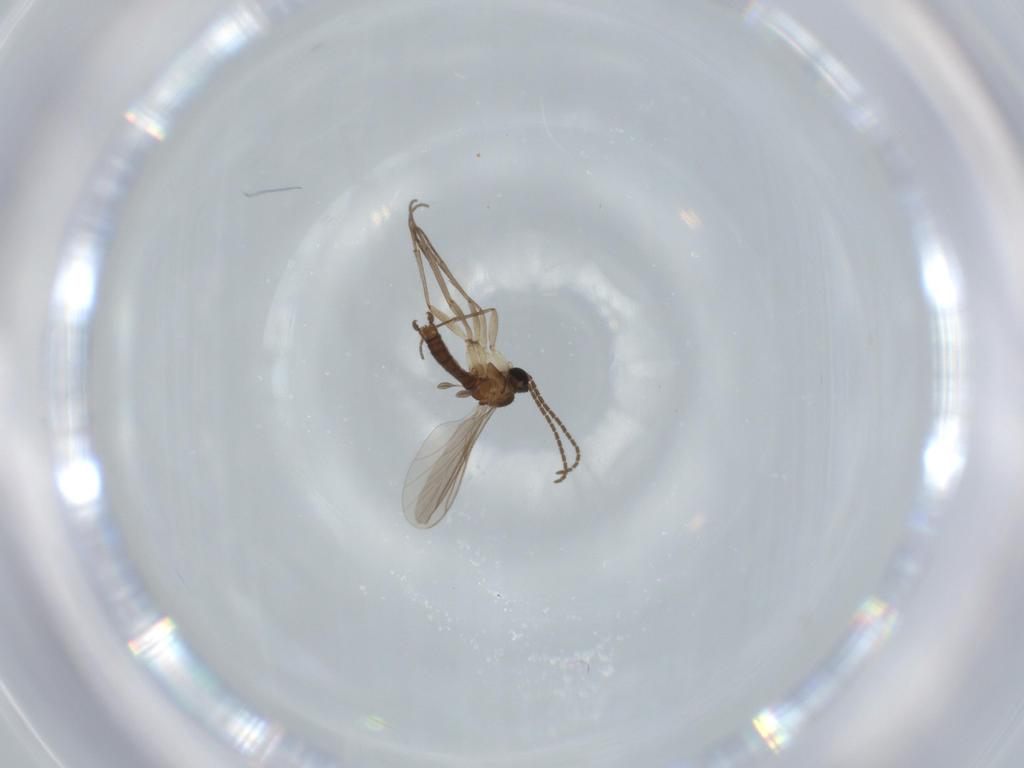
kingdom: Animalia
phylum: Arthropoda
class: Insecta
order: Diptera
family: Sciaridae
